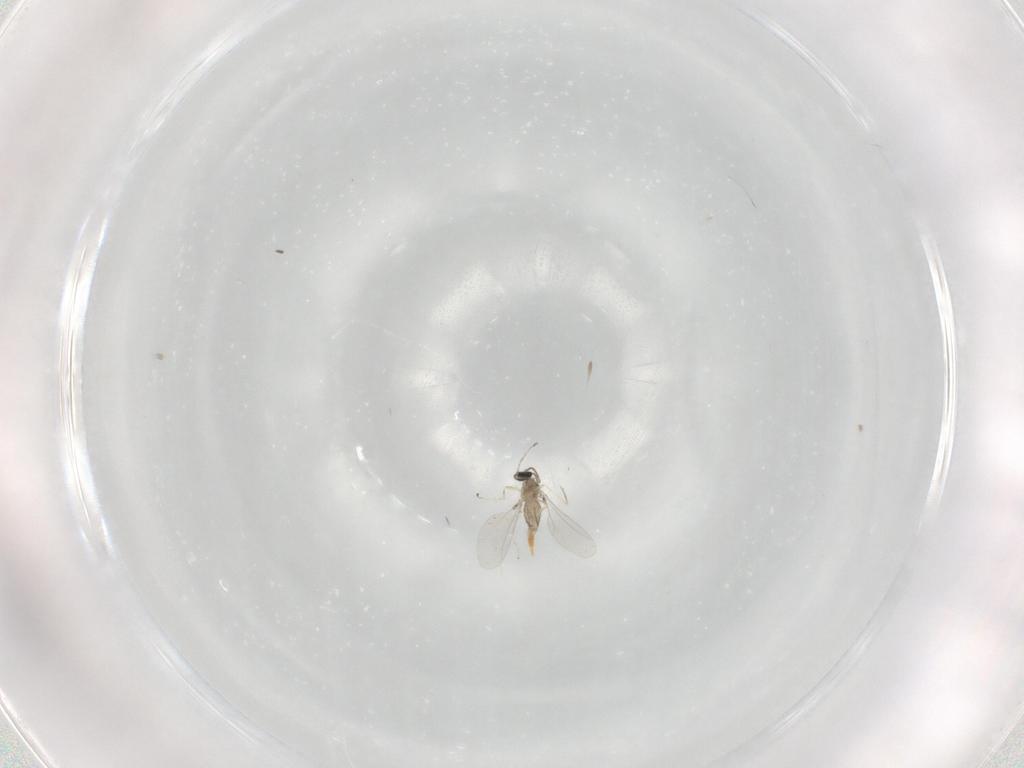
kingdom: Animalia
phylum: Arthropoda
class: Insecta
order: Diptera
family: Cecidomyiidae
